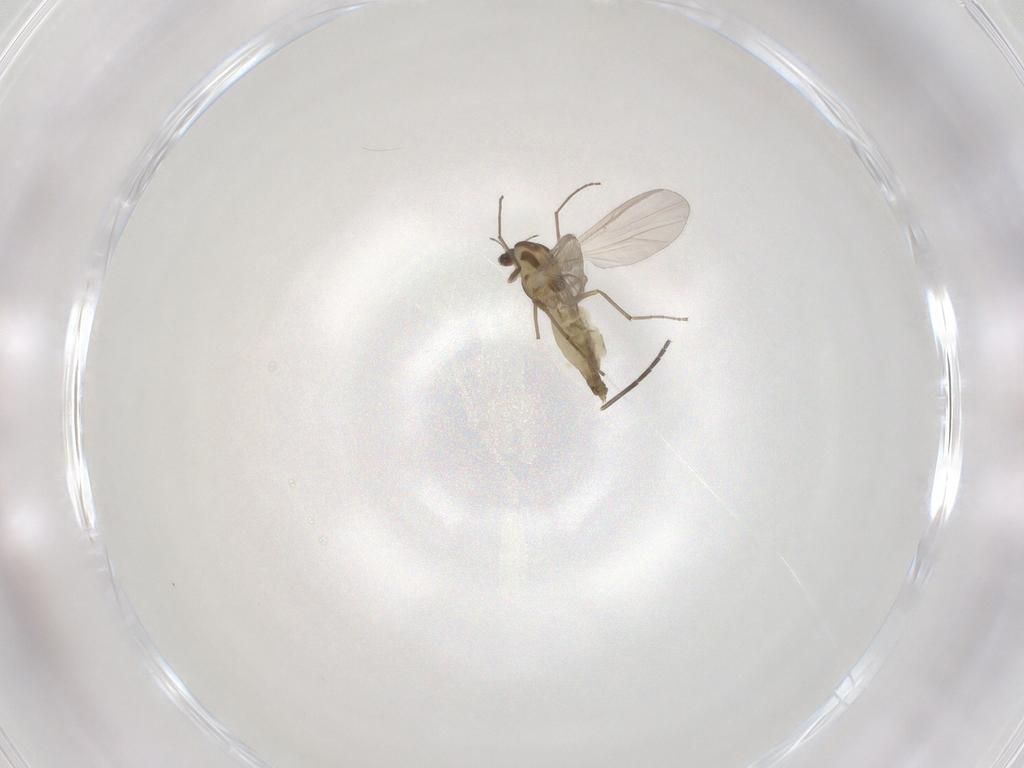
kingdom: Animalia
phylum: Arthropoda
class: Insecta
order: Diptera
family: Chironomidae
